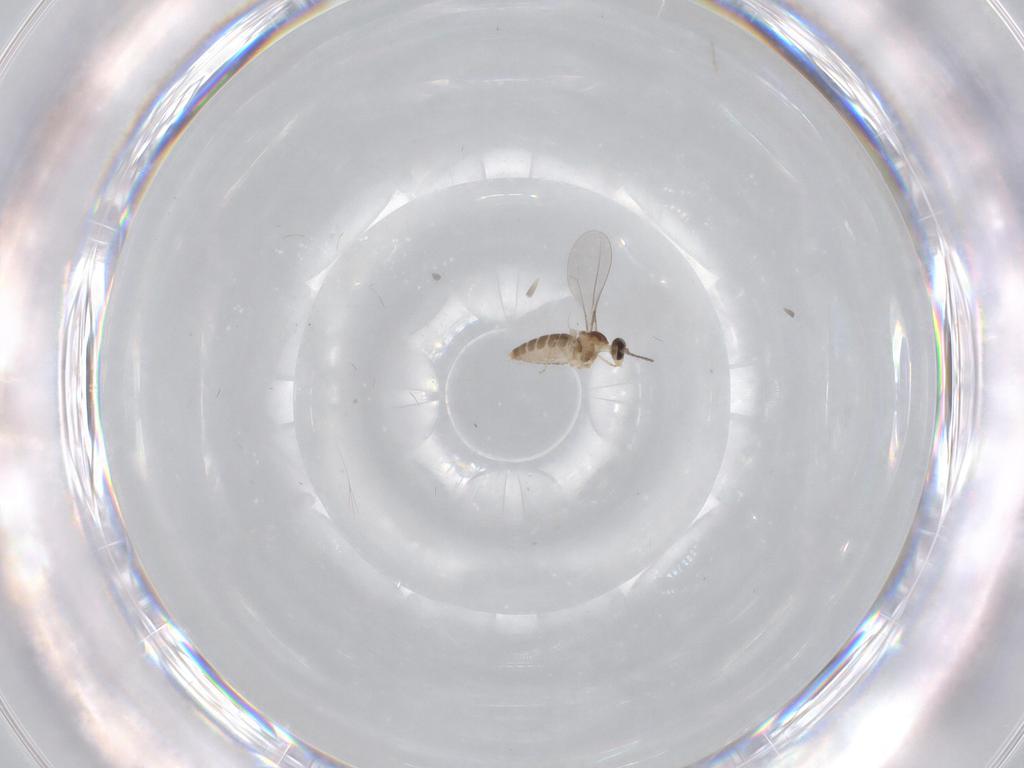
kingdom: Animalia
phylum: Arthropoda
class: Insecta
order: Diptera
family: Cecidomyiidae
